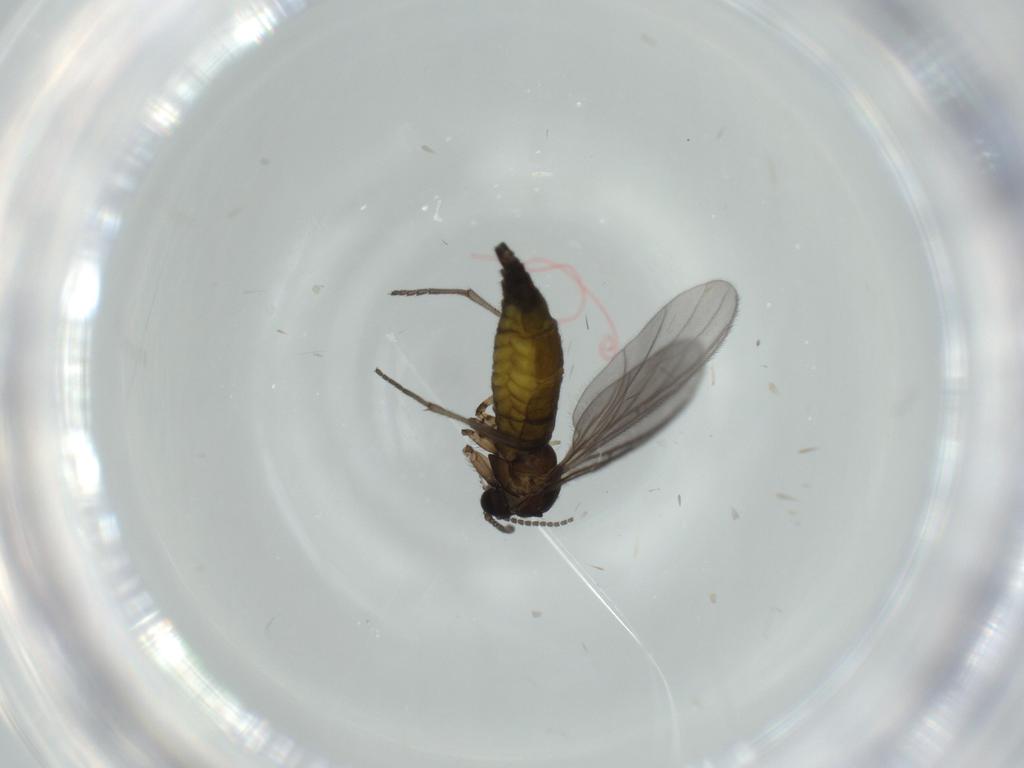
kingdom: Animalia
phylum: Arthropoda
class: Insecta
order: Diptera
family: Sciaridae
